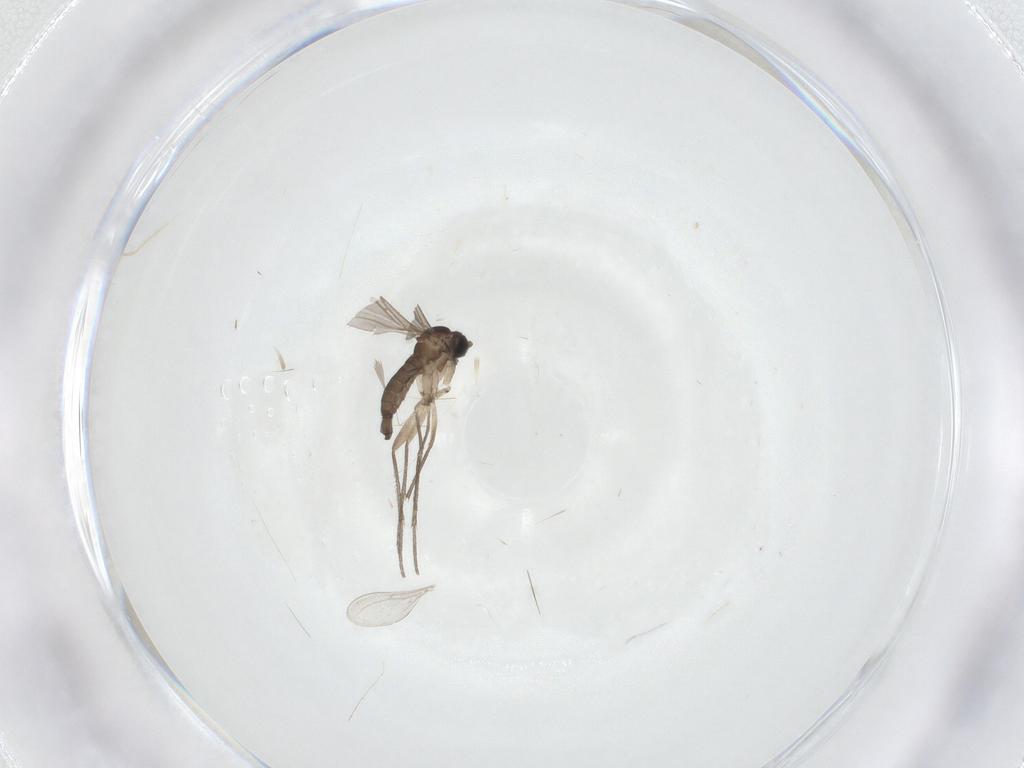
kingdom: Animalia
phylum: Arthropoda
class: Insecta
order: Diptera
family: Sciaridae
